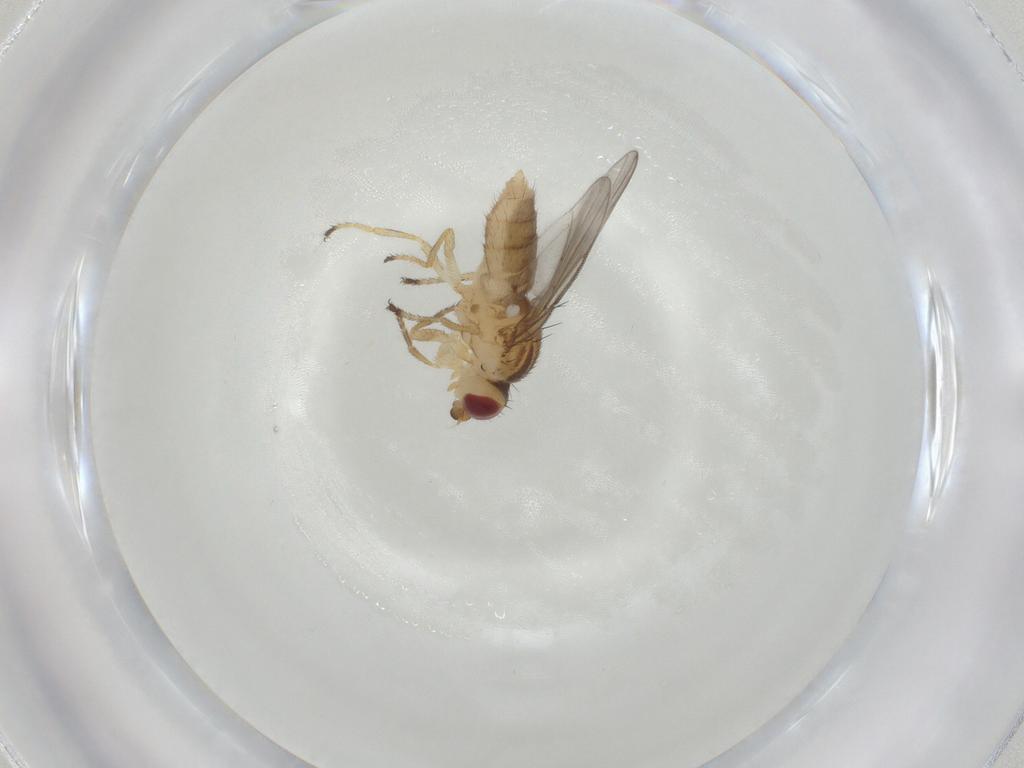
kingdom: Animalia
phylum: Arthropoda
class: Insecta
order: Diptera
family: Chloropidae
